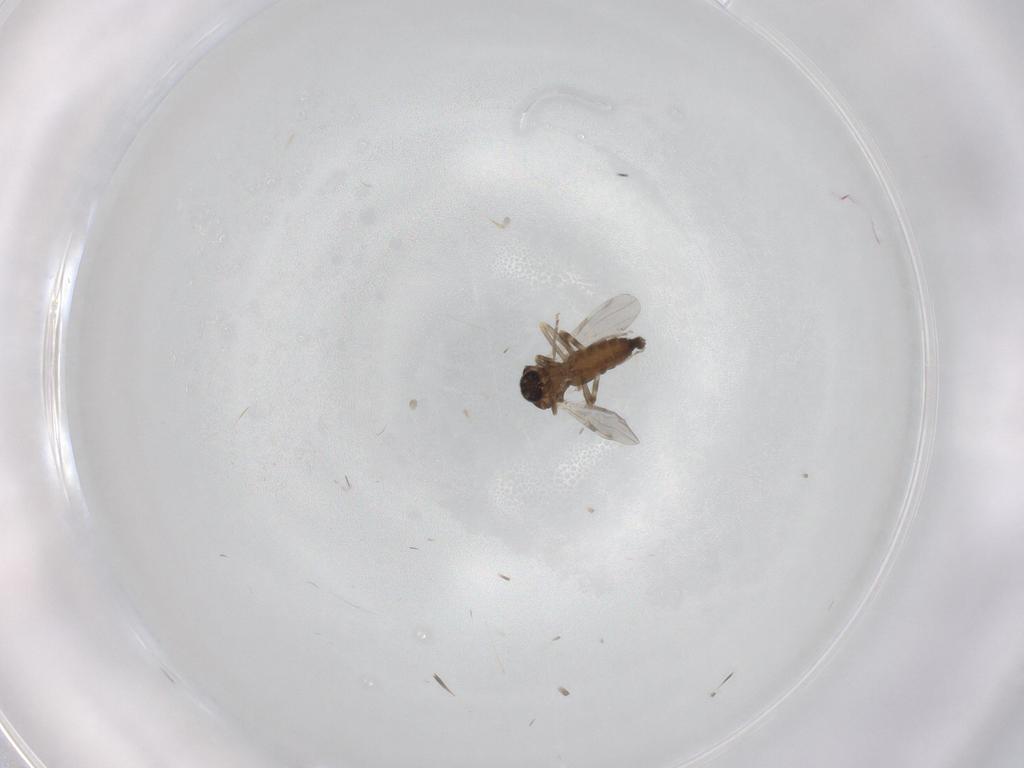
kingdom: Animalia
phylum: Arthropoda
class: Insecta
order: Diptera
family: Ceratopogonidae
